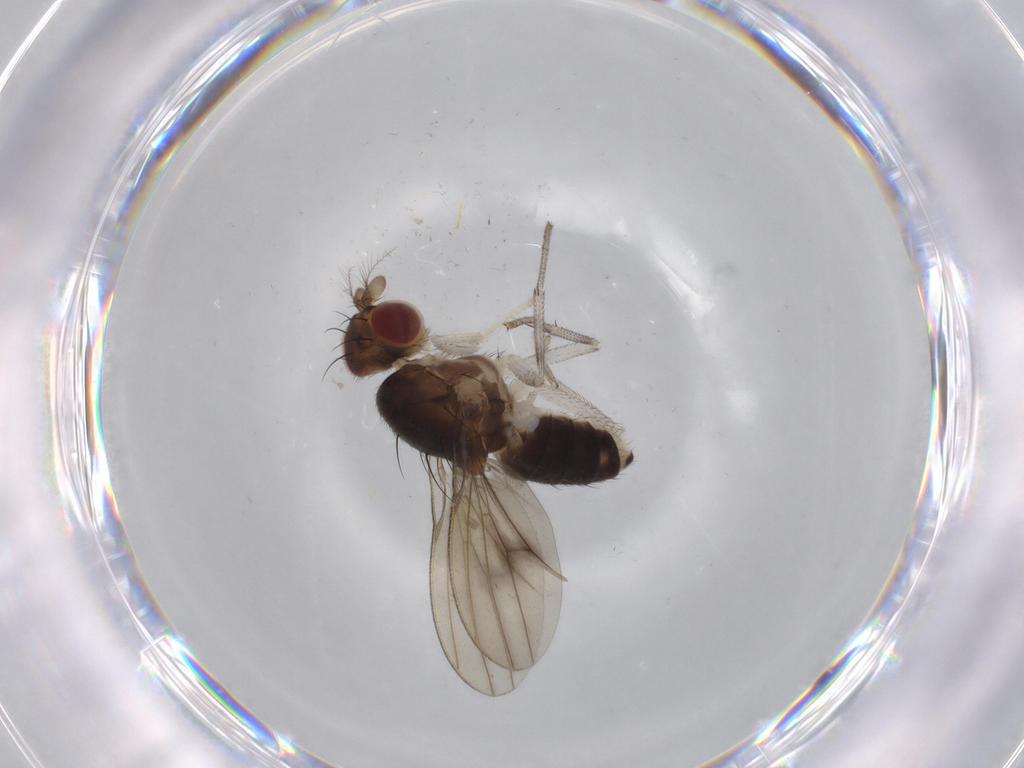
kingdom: Animalia
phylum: Arthropoda
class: Insecta
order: Diptera
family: Lauxaniidae
